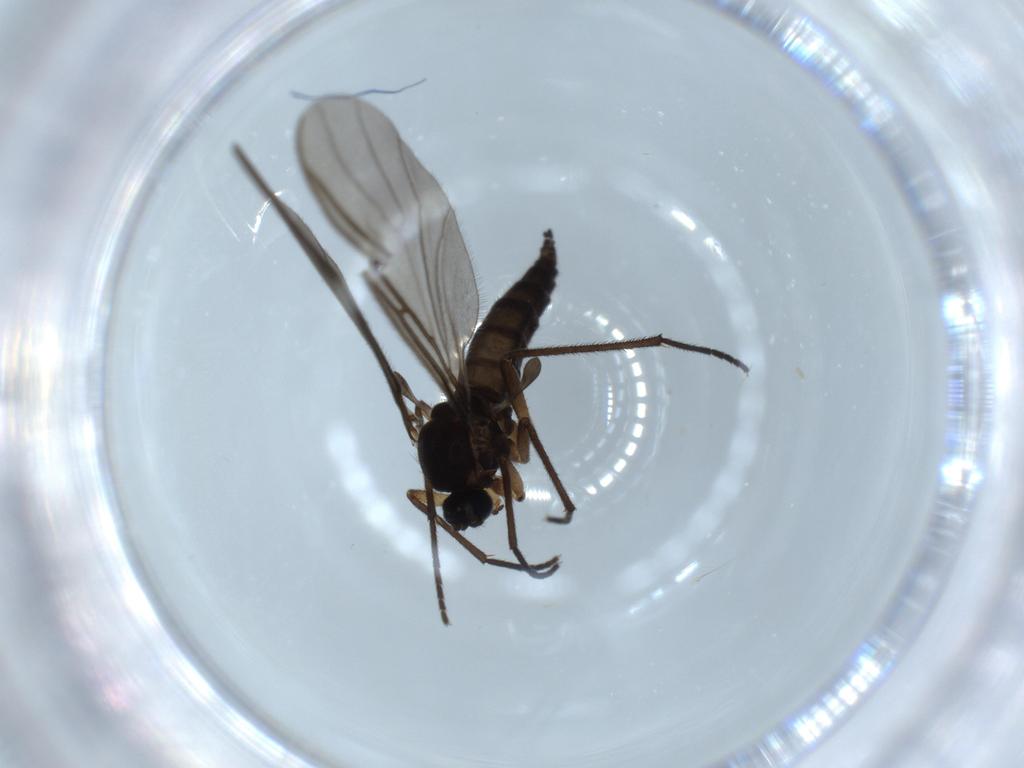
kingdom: Animalia
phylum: Arthropoda
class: Insecta
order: Diptera
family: Sciaridae
